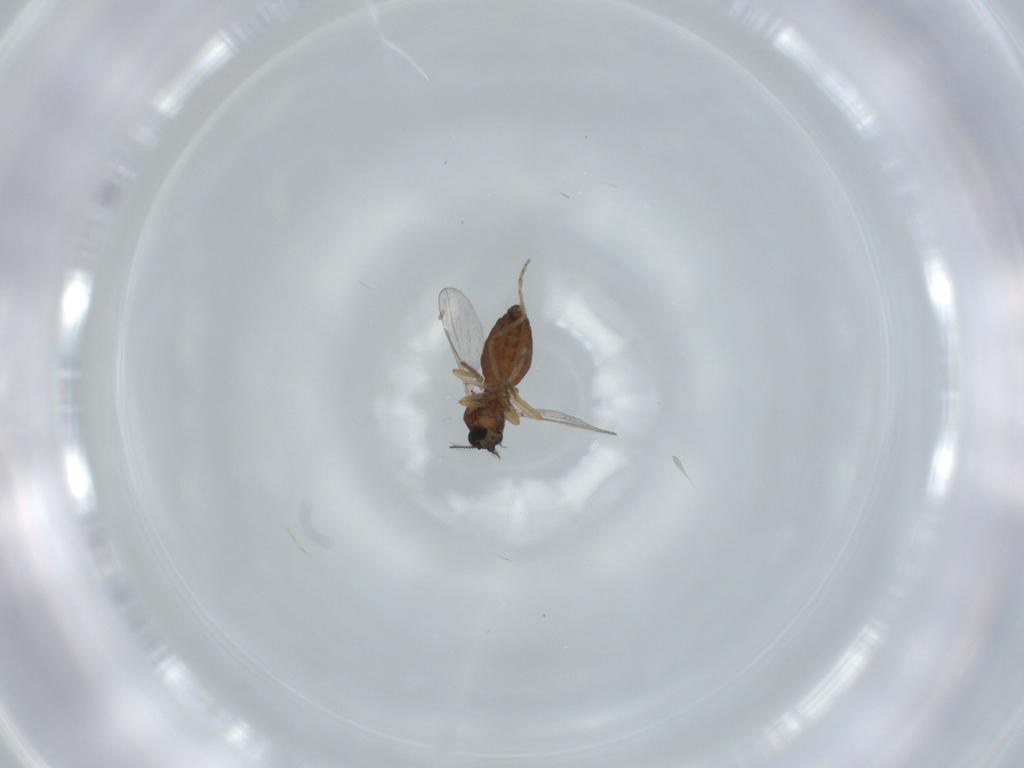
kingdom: Animalia
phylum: Arthropoda
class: Insecta
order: Diptera
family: Ceratopogonidae
